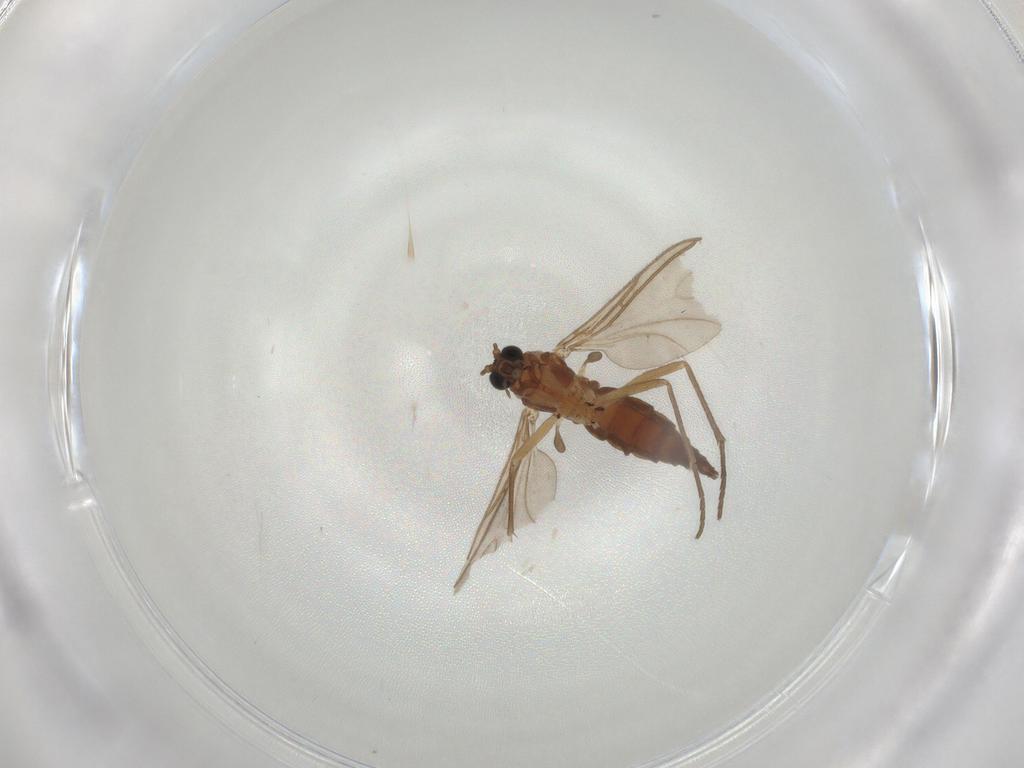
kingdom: Animalia
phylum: Arthropoda
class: Insecta
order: Diptera
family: Sciaridae
